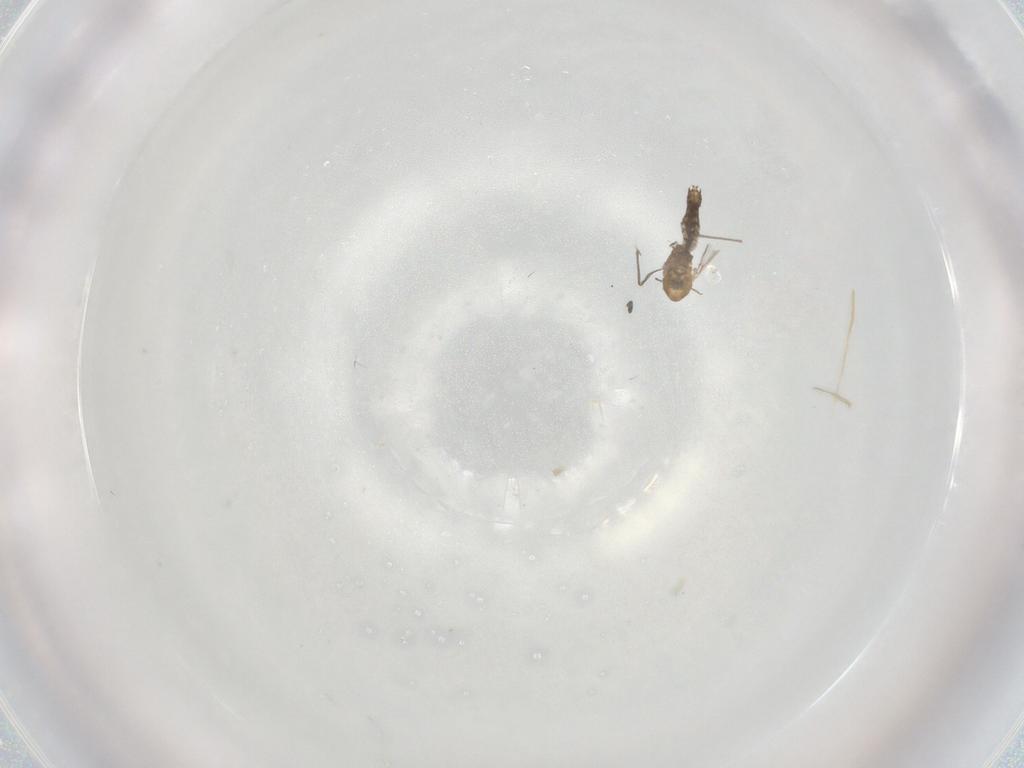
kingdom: Animalia
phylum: Arthropoda
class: Insecta
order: Diptera
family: Chironomidae
